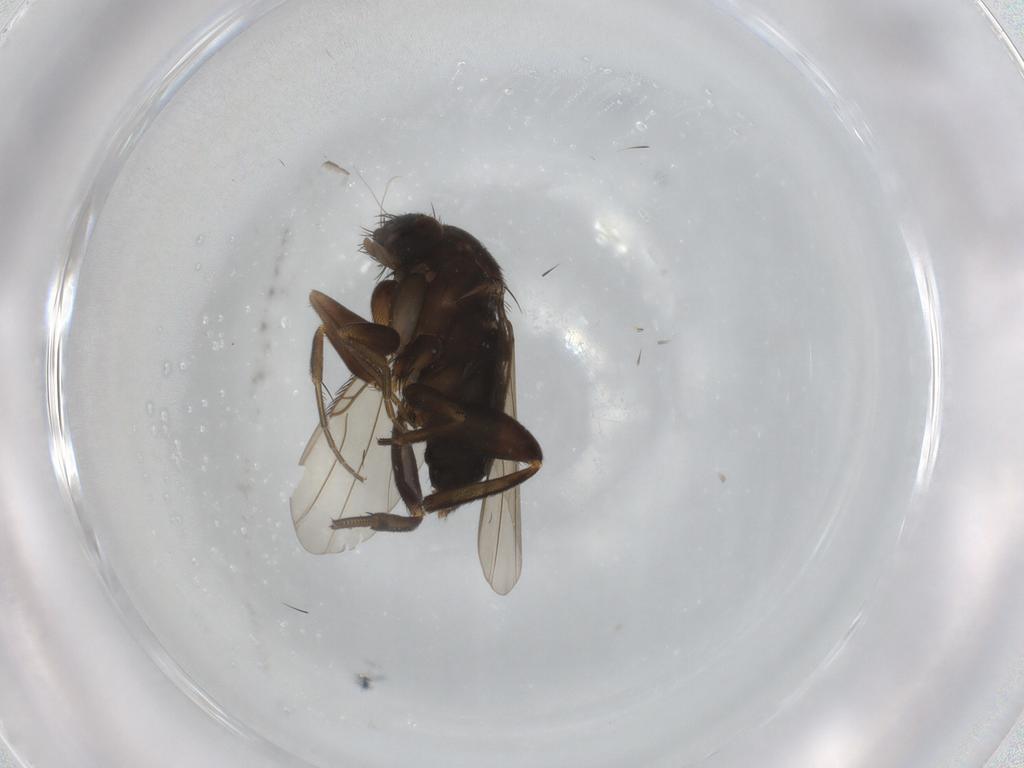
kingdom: Animalia
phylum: Arthropoda
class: Insecta
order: Diptera
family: Phoridae
